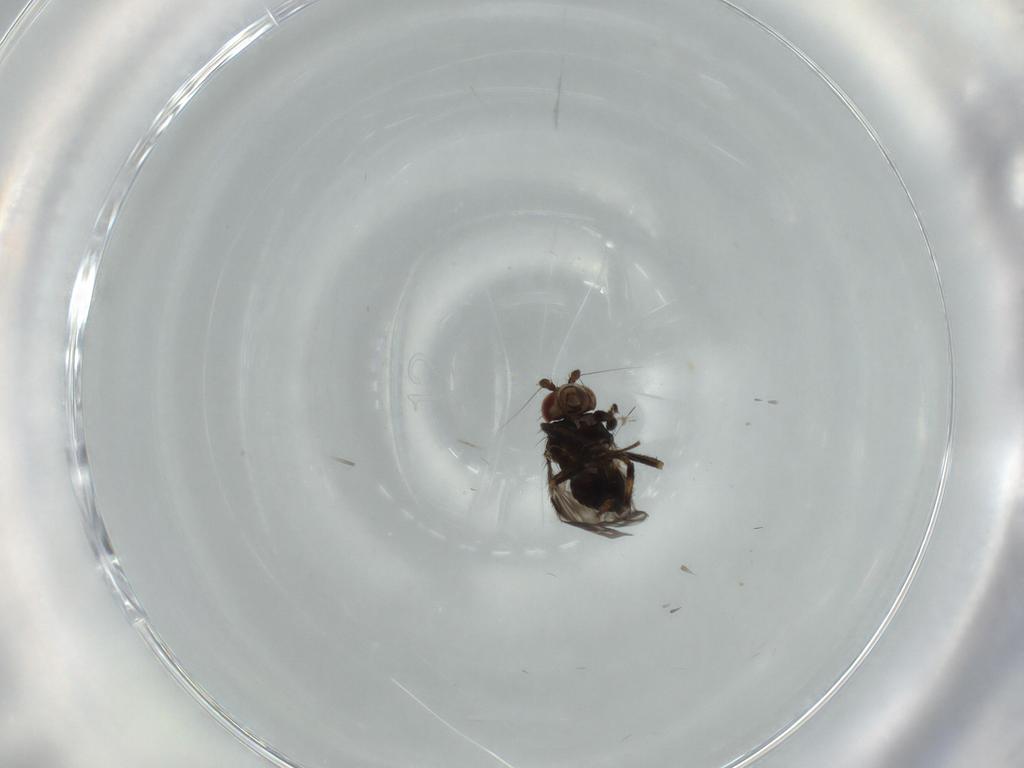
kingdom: Animalia
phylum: Arthropoda
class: Insecta
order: Diptera
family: Sphaeroceridae
